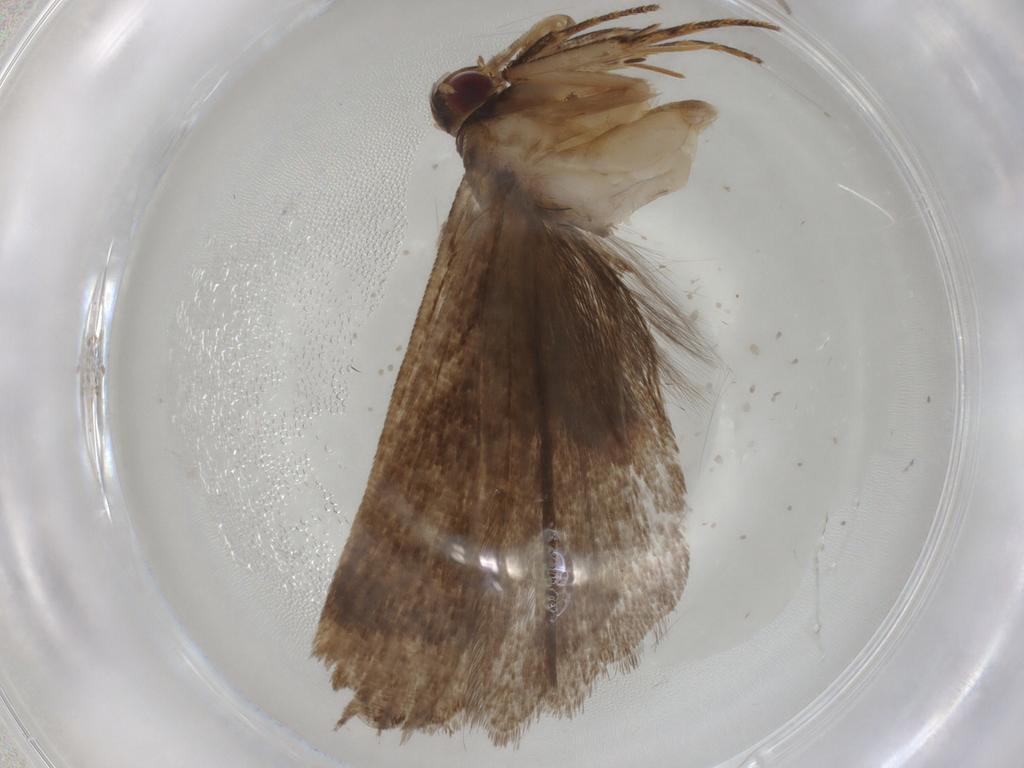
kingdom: Animalia
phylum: Arthropoda
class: Insecta
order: Lepidoptera
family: Gelechiidae
